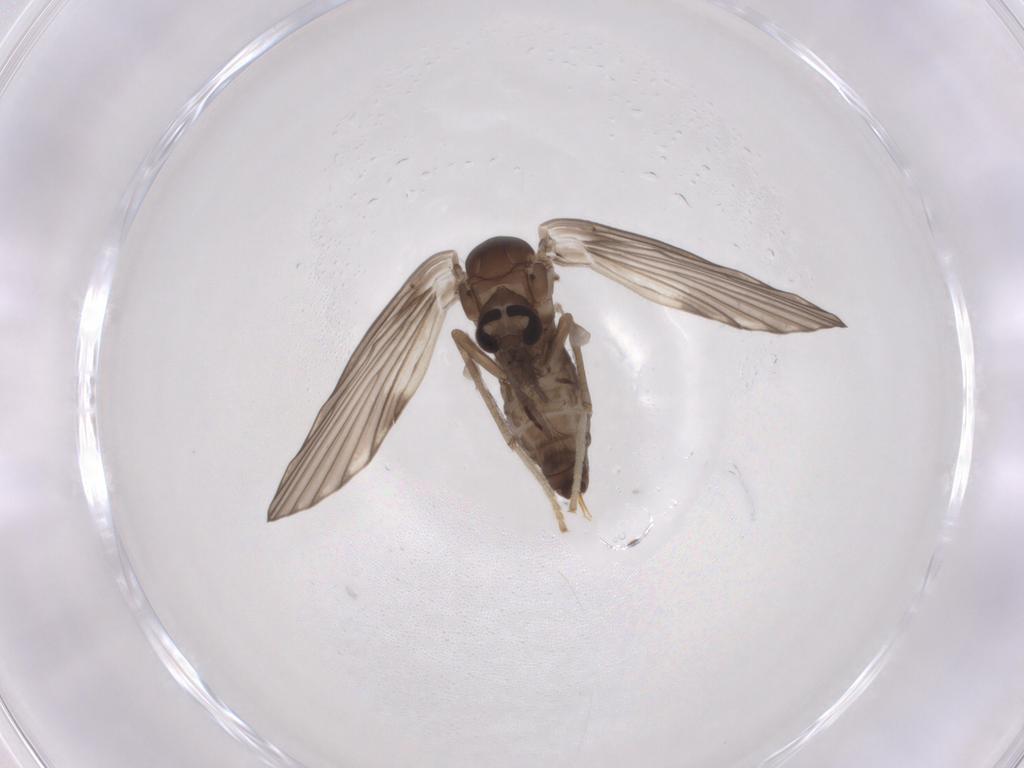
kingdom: Animalia
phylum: Arthropoda
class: Insecta
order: Diptera
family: Psychodidae
